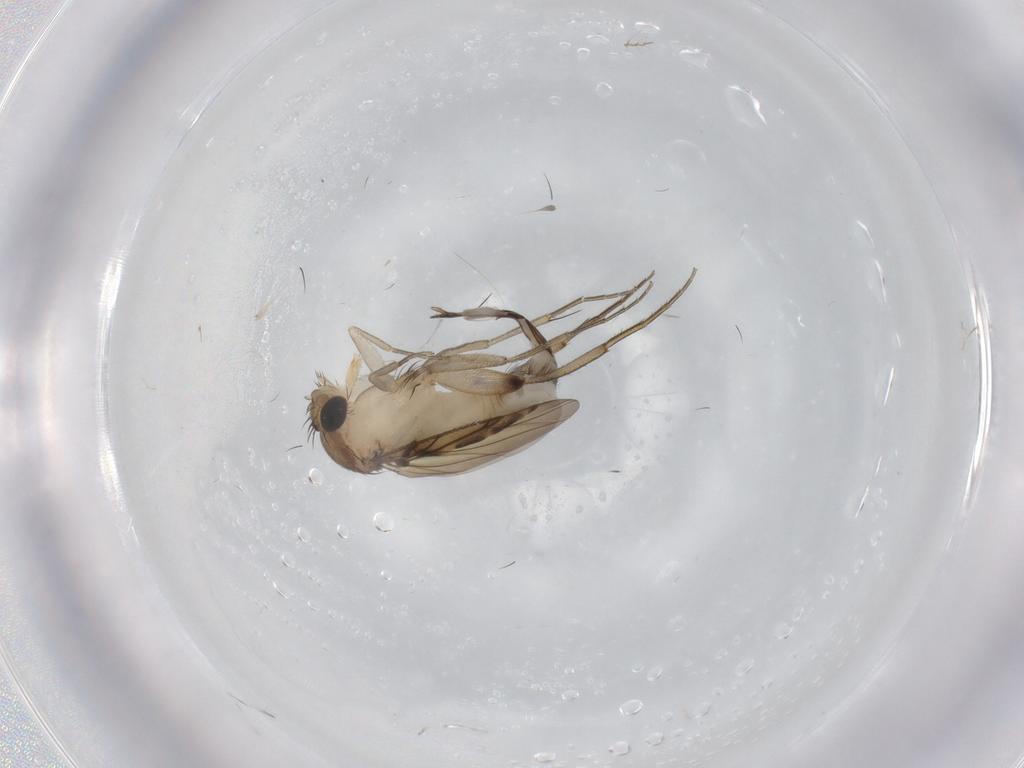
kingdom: Animalia
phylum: Arthropoda
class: Insecta
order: Diptera
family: Phoridae
